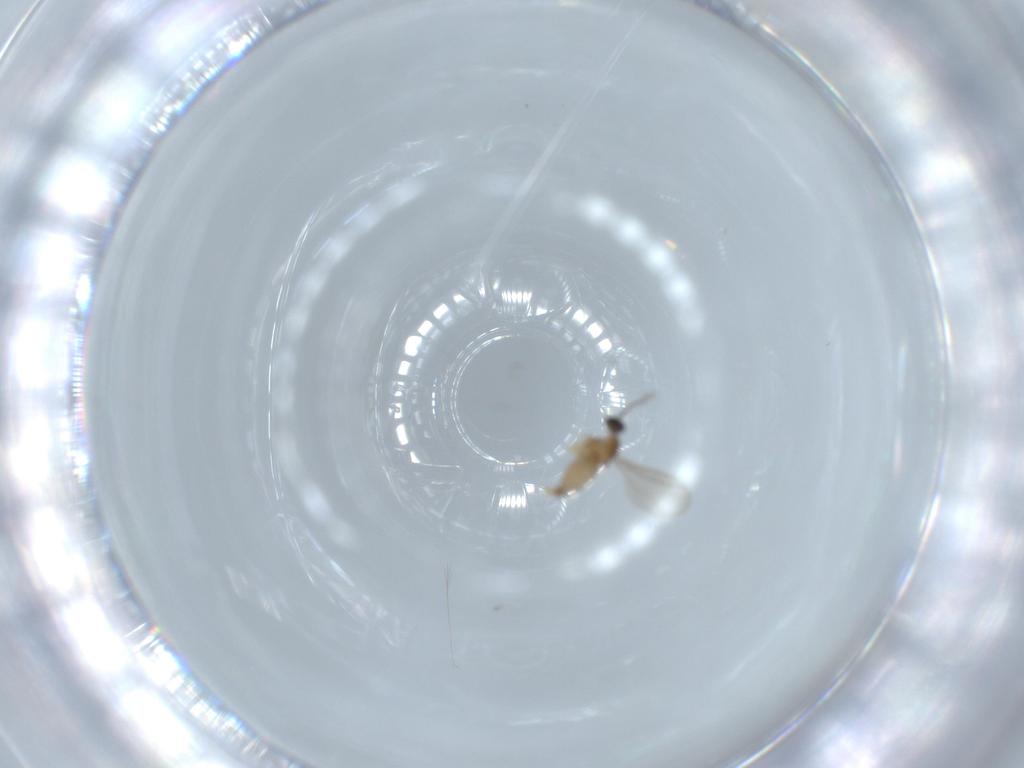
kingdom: Animalia
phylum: Arthropoda
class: Insecta
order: Diptera
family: Cecidomyiidae
